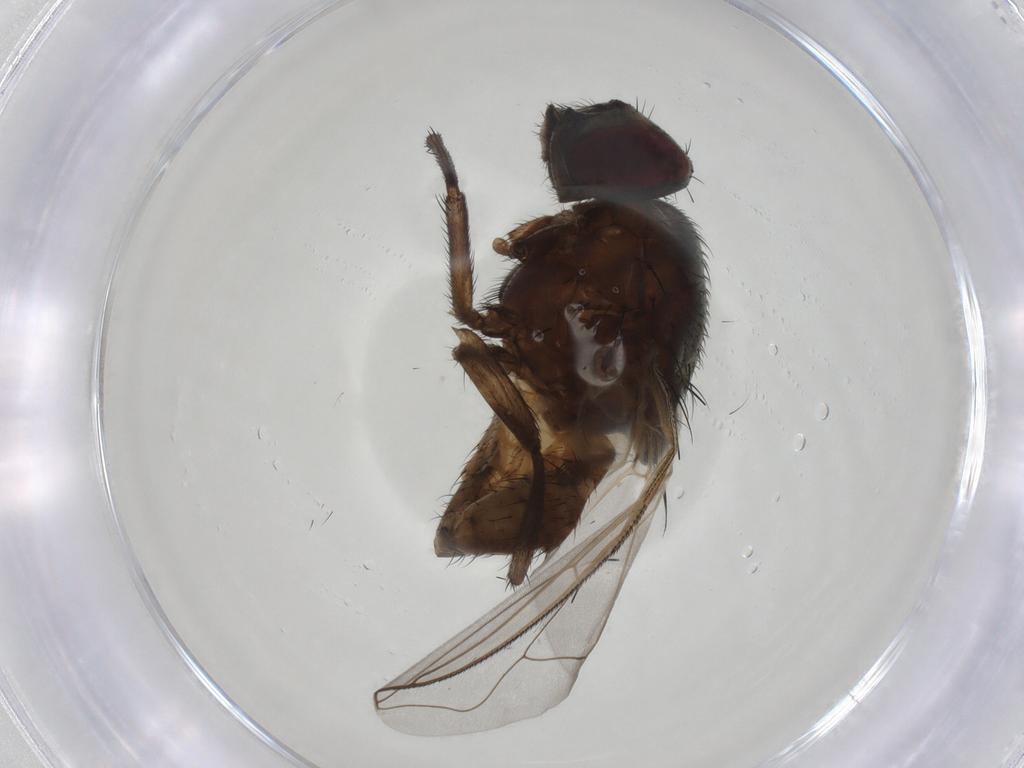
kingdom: Animalia
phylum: Arthropoda
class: Insecta
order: Diptera
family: Muscidae
